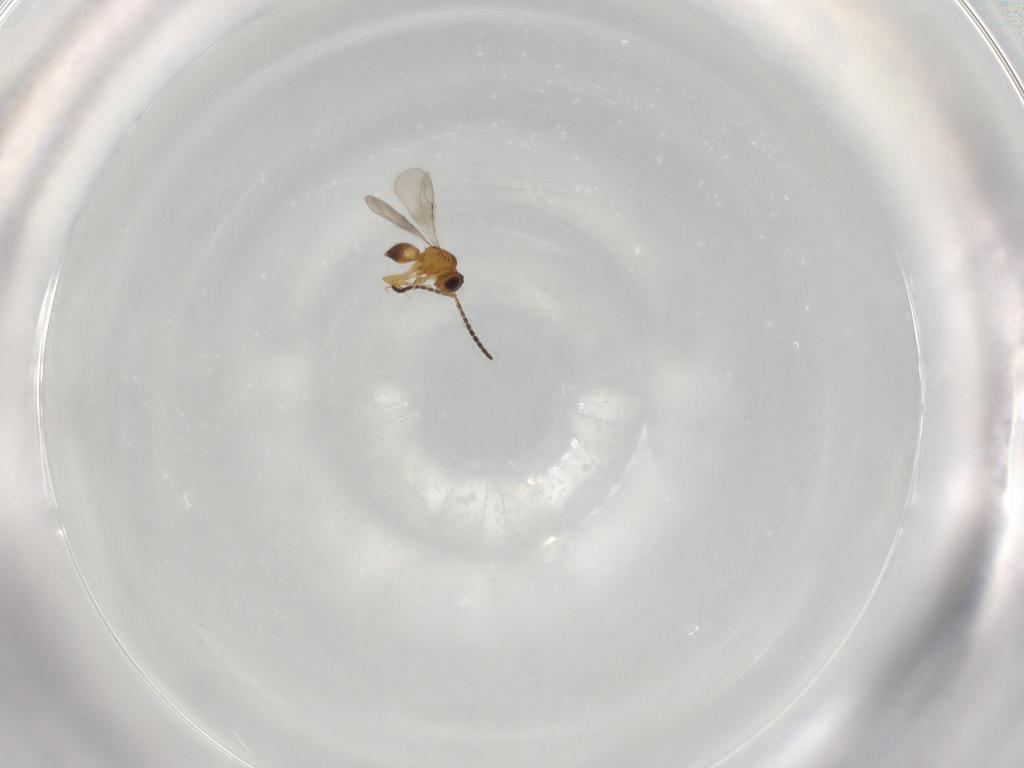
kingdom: Animalia
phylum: Arthropoda
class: Insecta
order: Hymenoptera
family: Ceraphronidae
